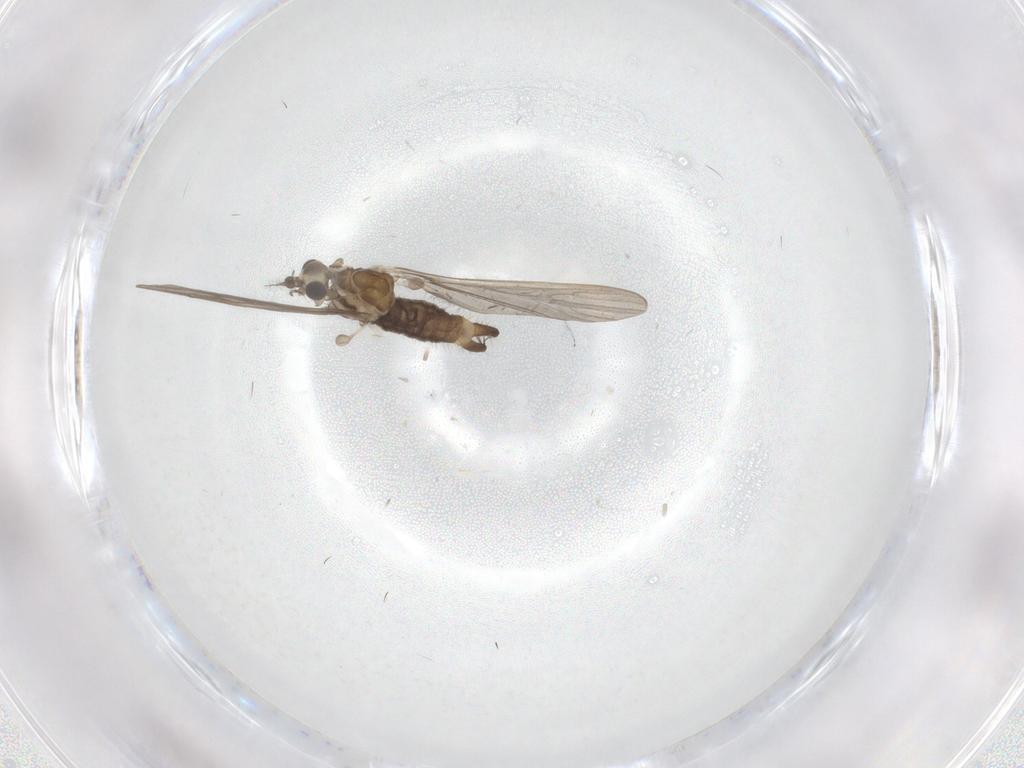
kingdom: Animalia
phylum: Arthropoda
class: Insecta
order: Diptera
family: Limoniidae
